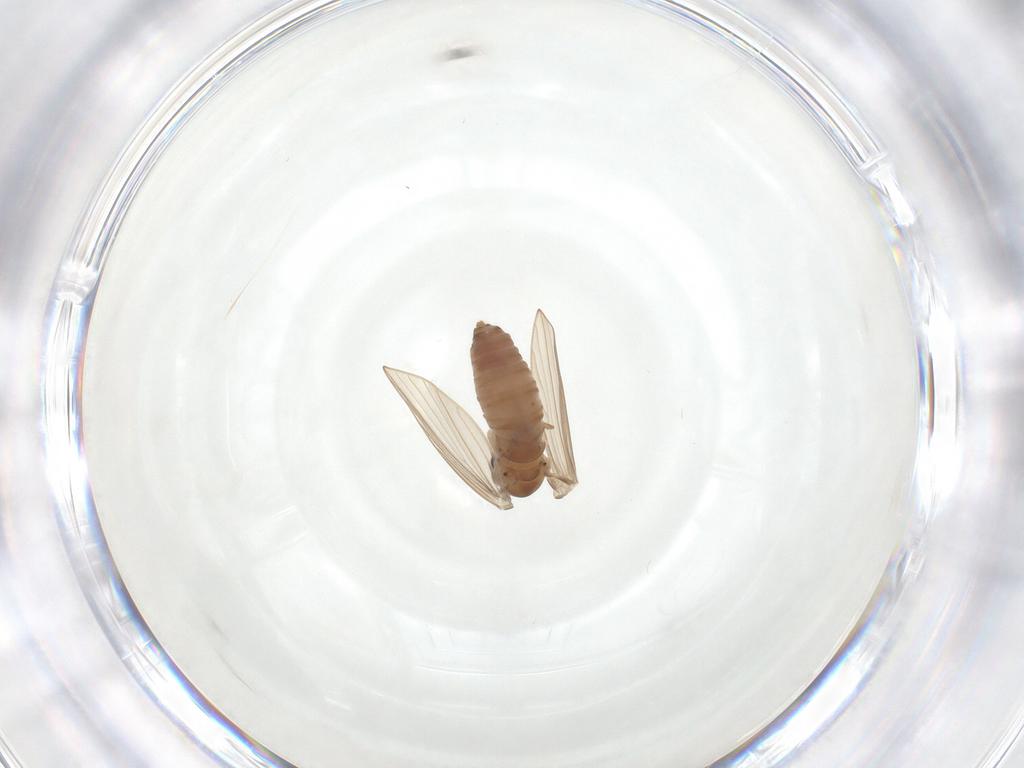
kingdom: Animalia
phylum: Arthropoda
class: Insecta
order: Diptera
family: Psychodidae
